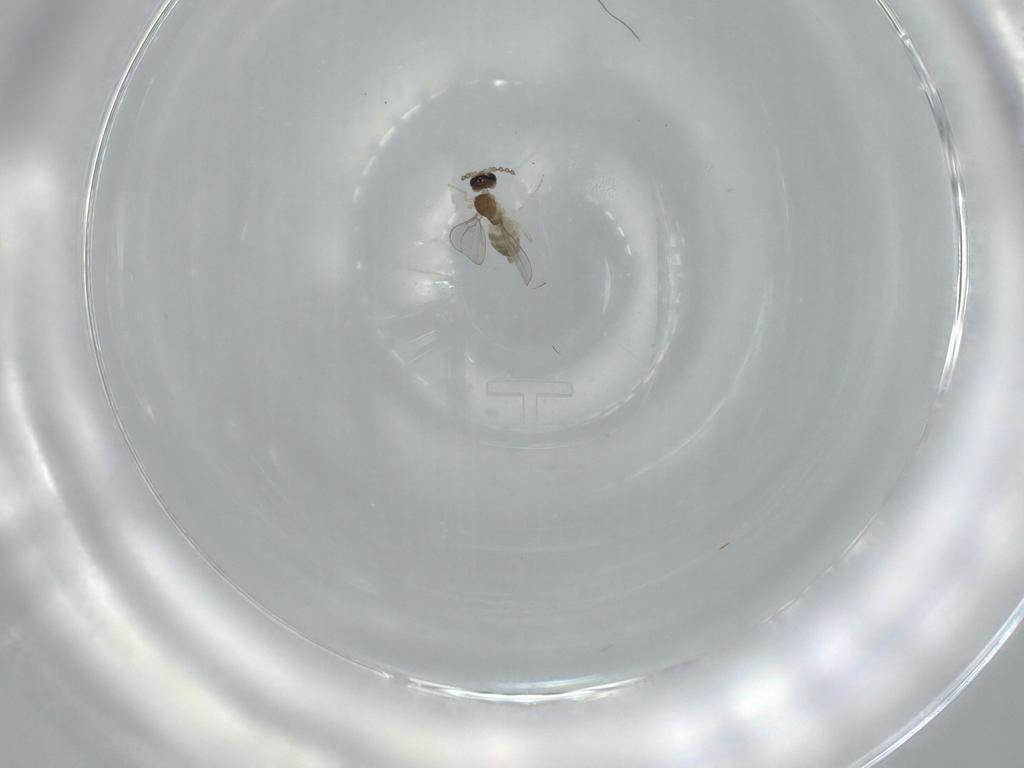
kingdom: Animalia
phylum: Arthropoda
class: Insecta
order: Diptera
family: Cecidomyiidae
